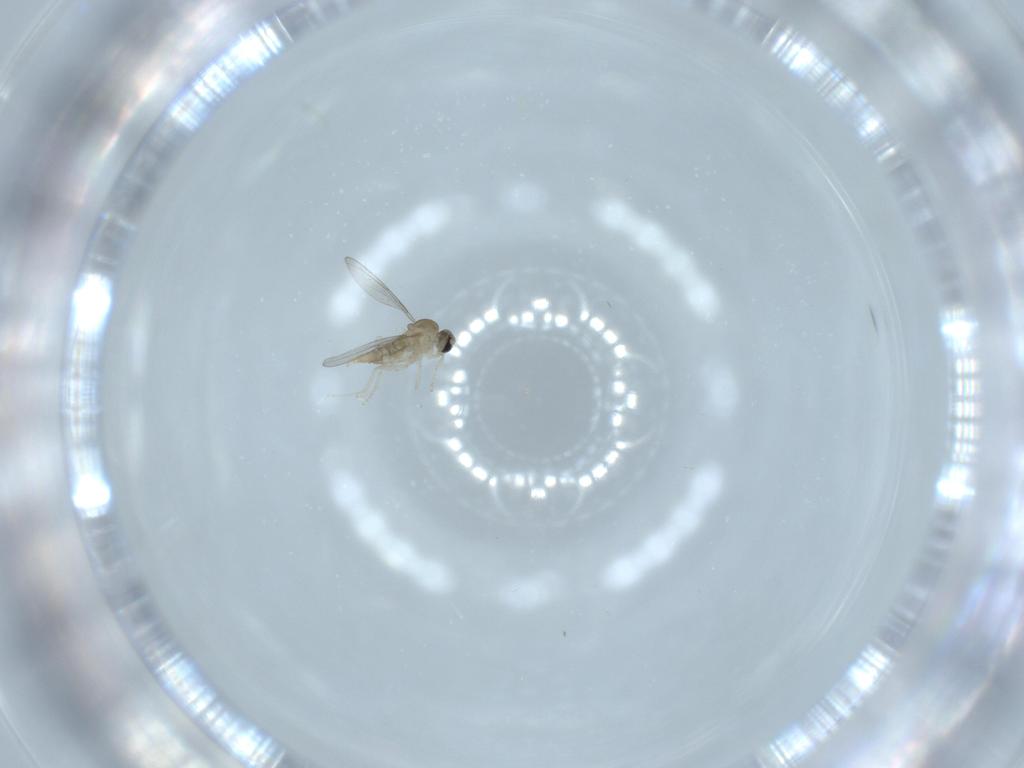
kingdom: Animalia
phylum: Arthropoda
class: Insecta
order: Diptera
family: Cecidomyiidae
